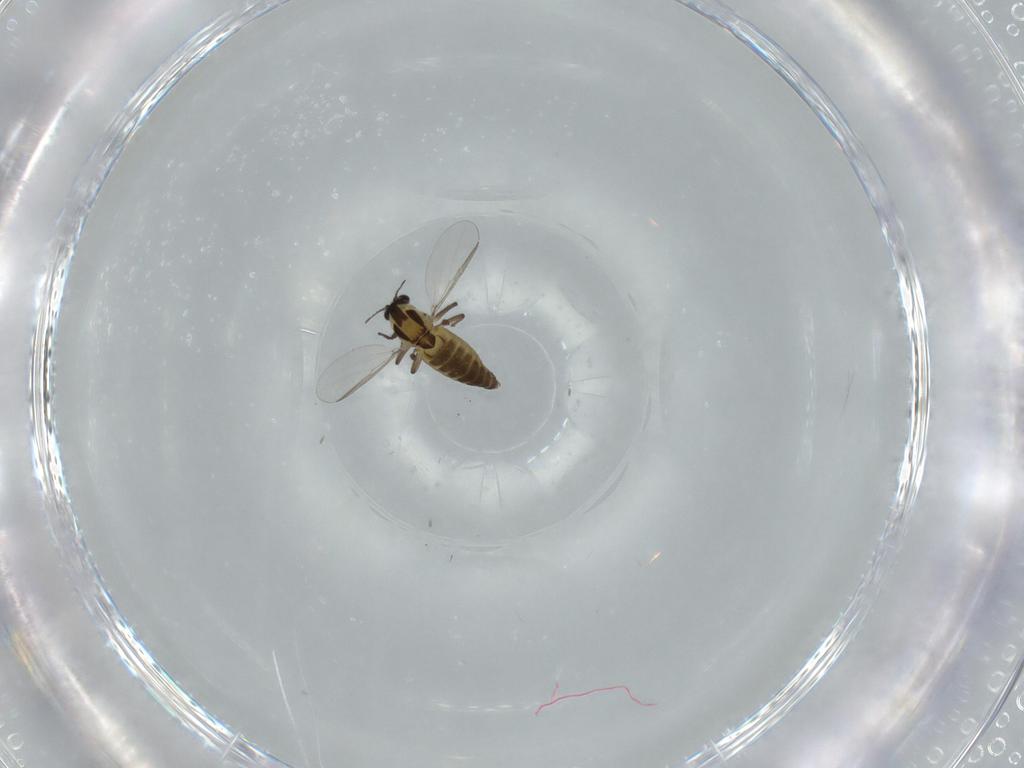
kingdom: Animalia
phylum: Arthropoda
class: Insecta
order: Diptera
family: Chironomidae
